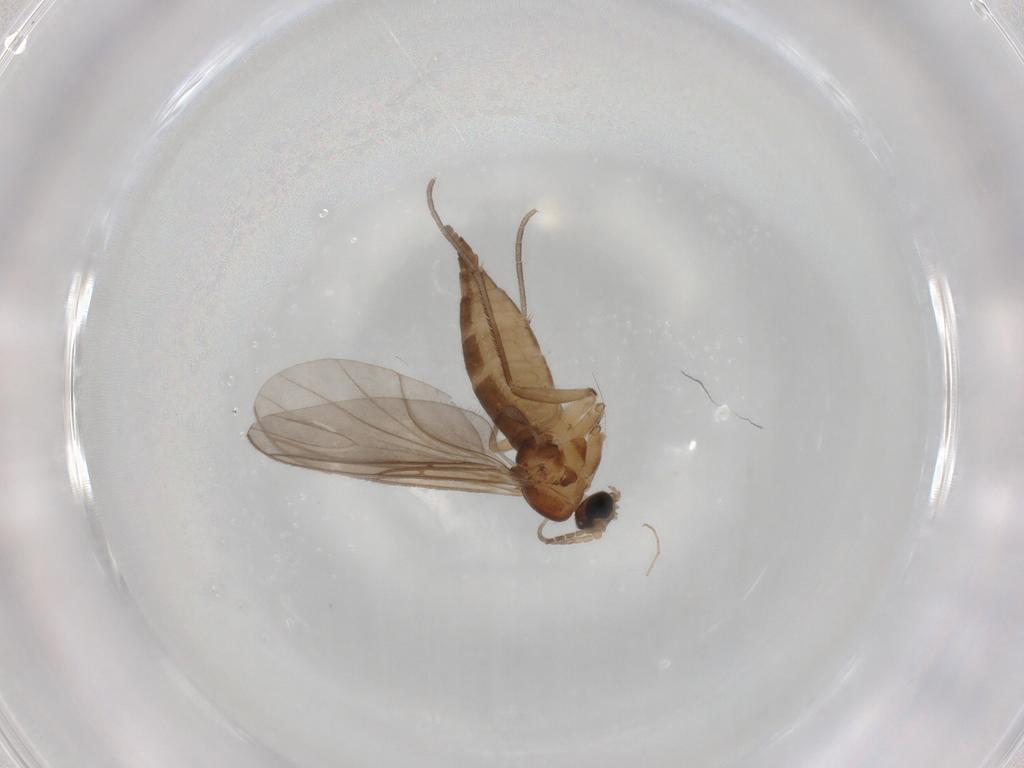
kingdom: Animalia
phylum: Arthropoda
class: Insecta
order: Diptera
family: Sciaridae
